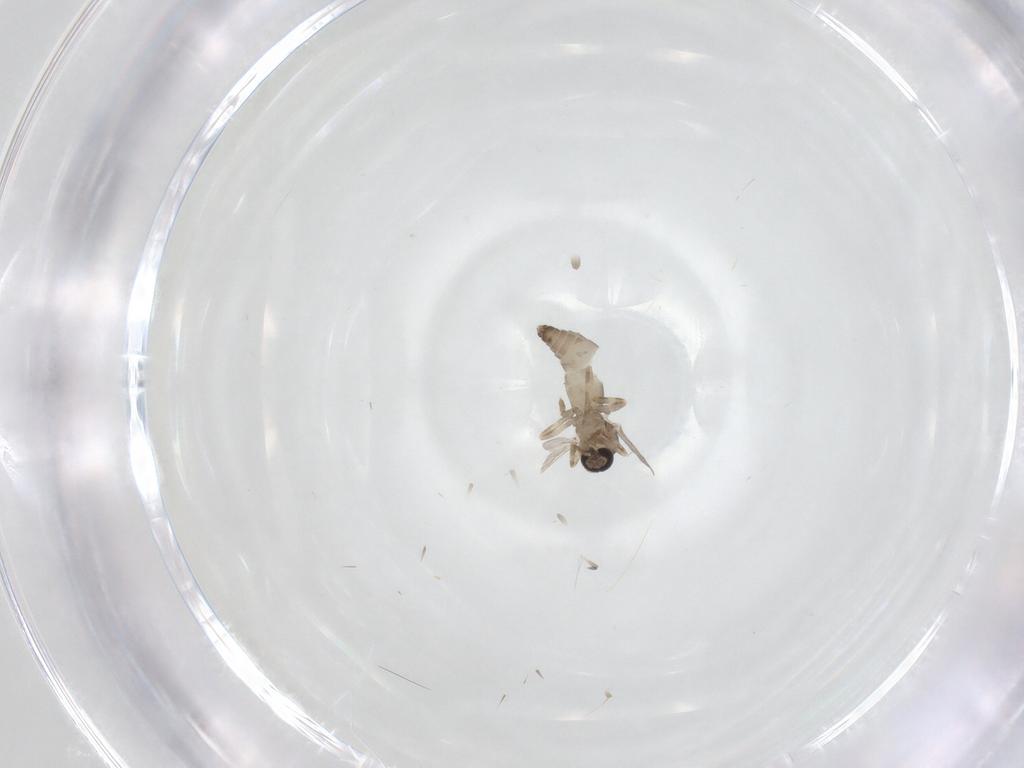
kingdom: Animalia
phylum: Arthropoda
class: Insecta
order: Diptera
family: Ceratopogonidae
